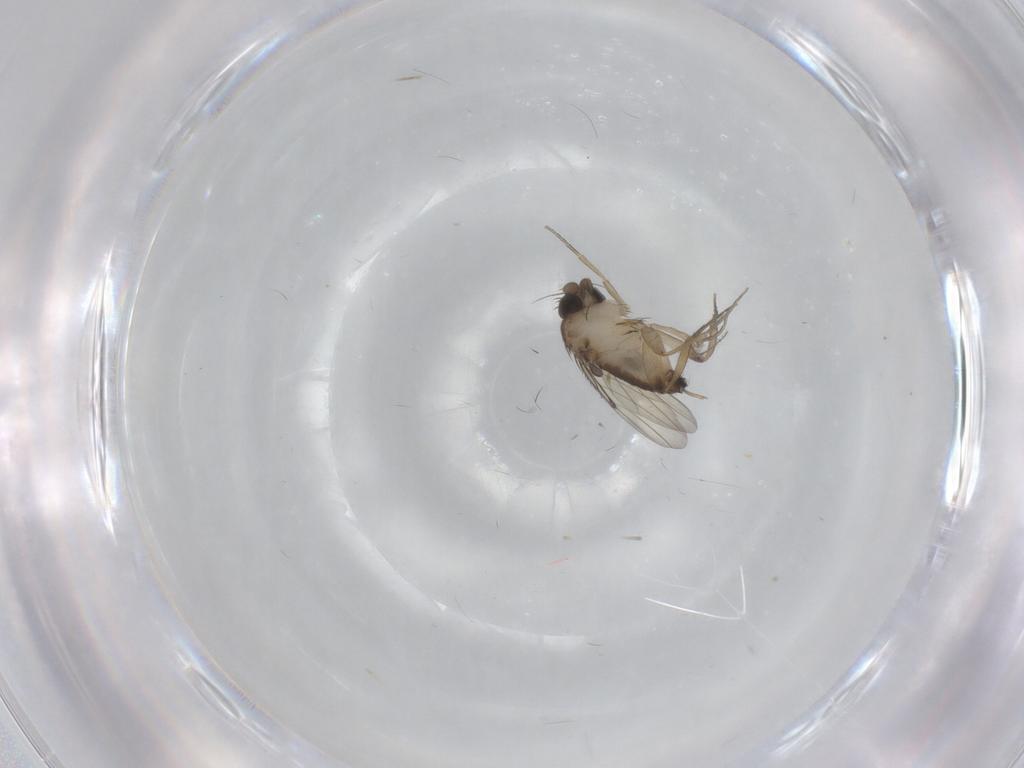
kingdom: Animalia
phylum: Arthropoda
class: Insecta
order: Diptera
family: Phoridae
